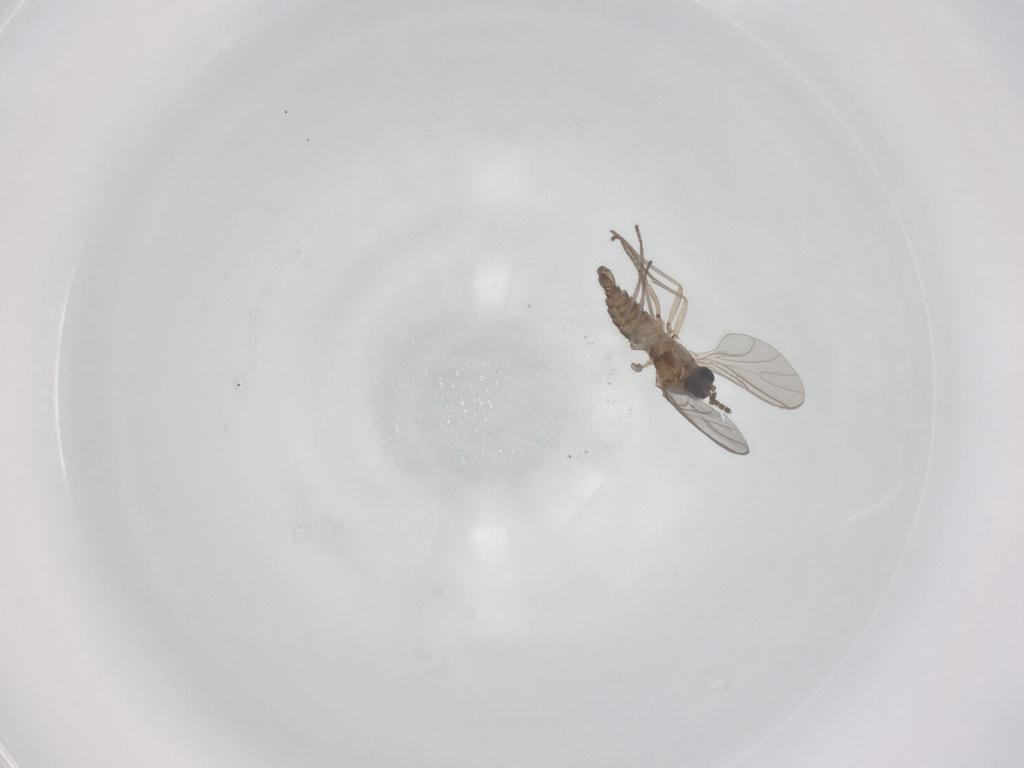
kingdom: Animalia
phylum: Arthropoda
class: Insecta
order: Diptera
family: Sciaridae
